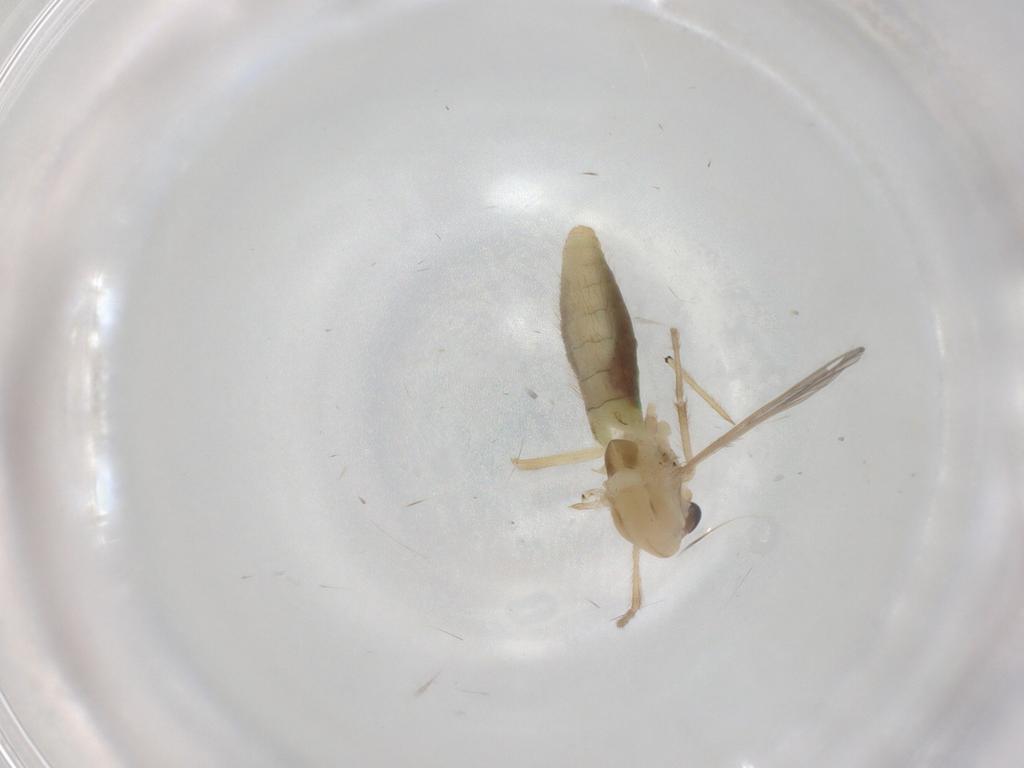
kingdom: Animalia
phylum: Arthropoda
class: Insecta
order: Diptera
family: Chironomidae
